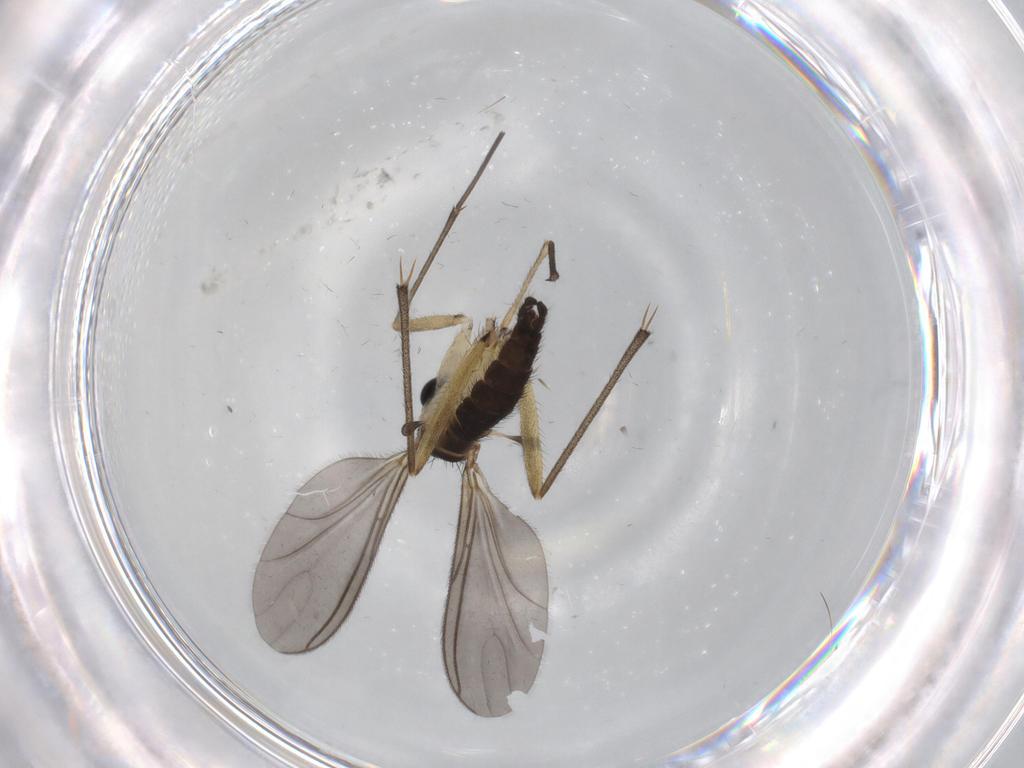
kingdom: Animalia
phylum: Arthropoda
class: Insecta
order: Diptera
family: Sciaridae
